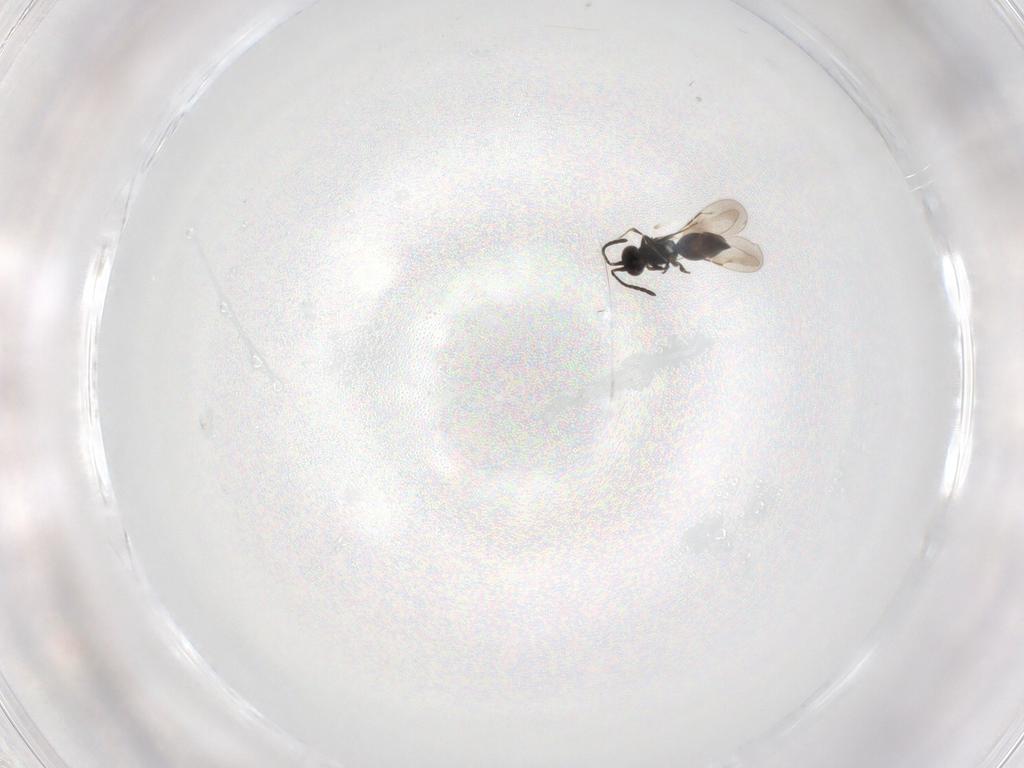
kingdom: Animalia
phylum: Arthropoda
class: Insecta
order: Hymenoptera
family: Ceraphronidae
